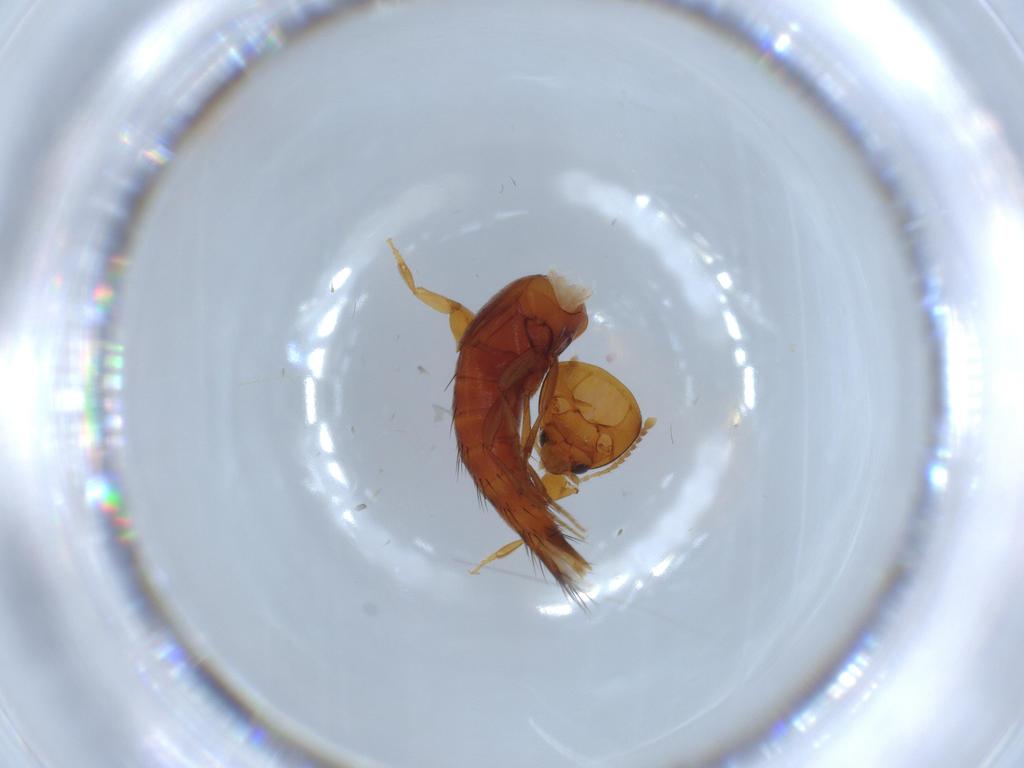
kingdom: Animalia
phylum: Arthropoda
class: Insecta
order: Coleoptera
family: Staphylinidae
